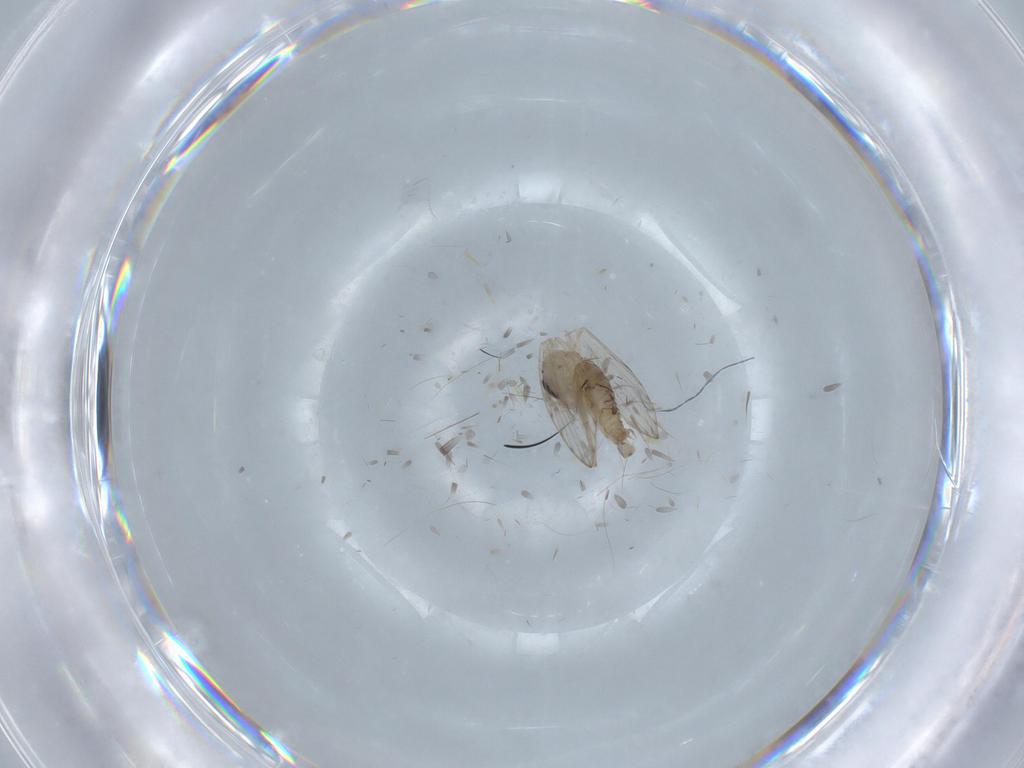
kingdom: Animalia
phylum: Arthropoda
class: Insecta
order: Diptera
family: Psychodidae
